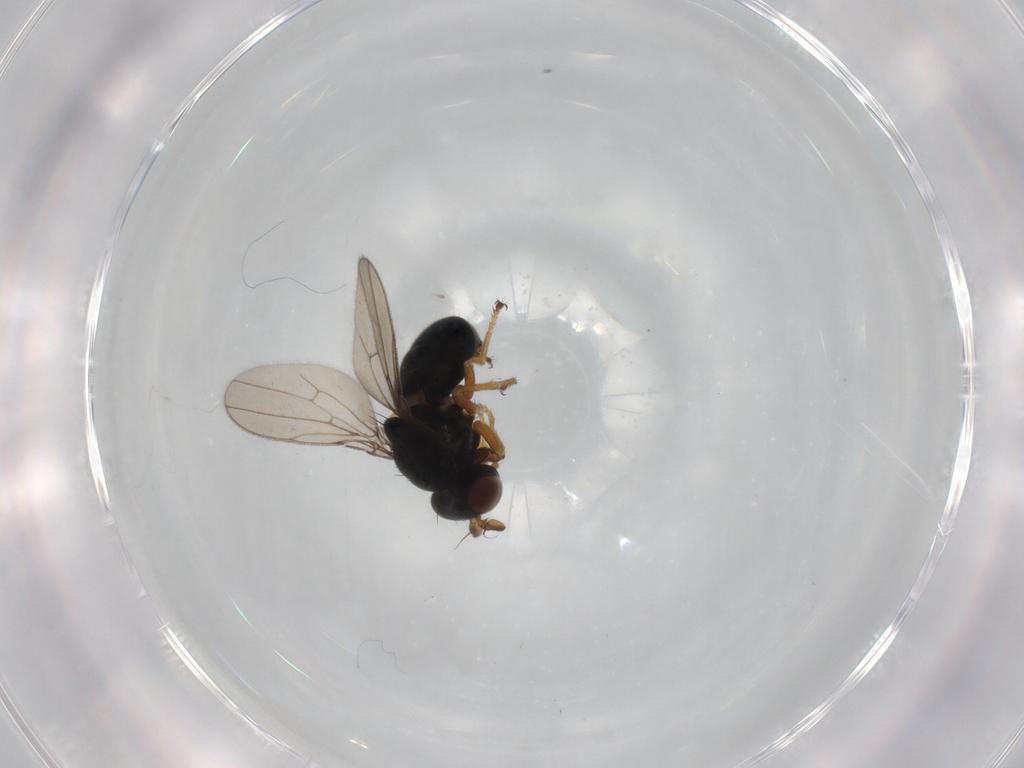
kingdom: Animalia
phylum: Arthropoda
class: Insecta
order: Diptera
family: Ephydridae
